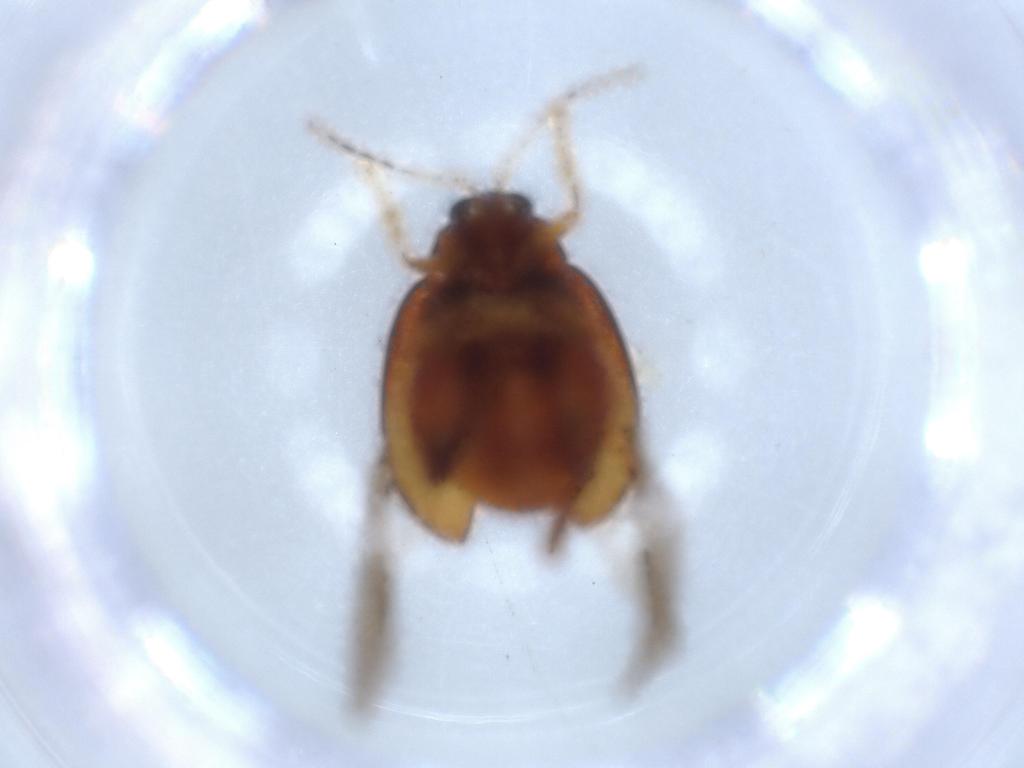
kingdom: Animalia
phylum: Arthropoda
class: Insecta
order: Coleoptera
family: Chrysomelidae
